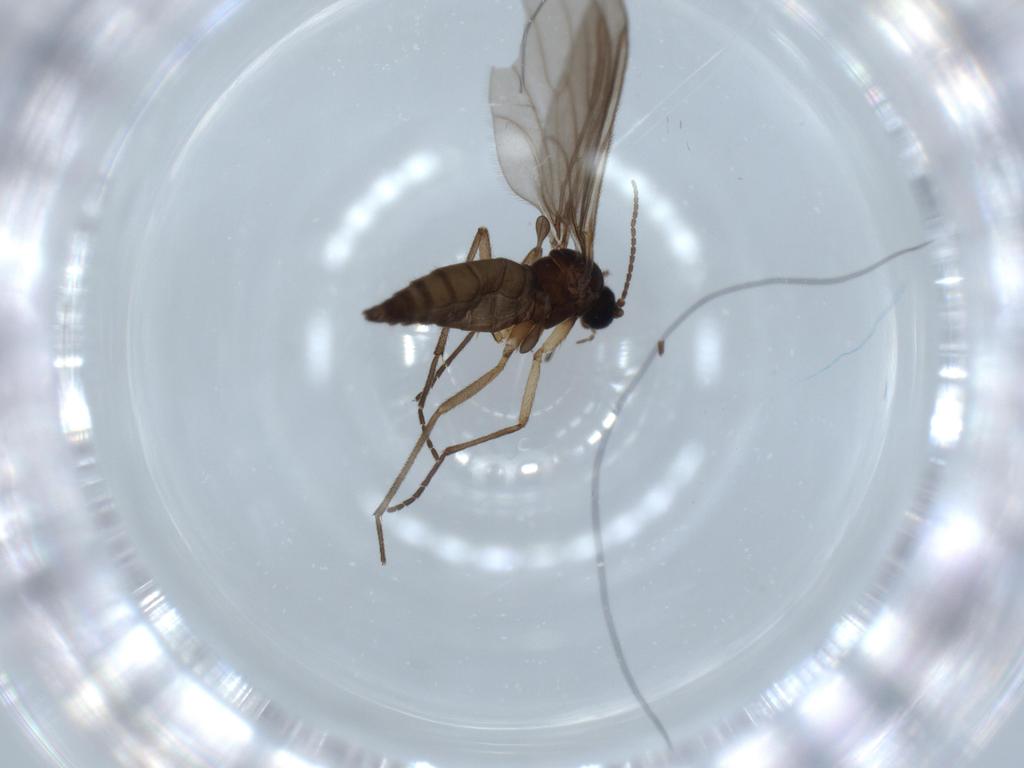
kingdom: Animalia
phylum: Arthropoda
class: Insecta
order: Diptera
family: Sciaridae
